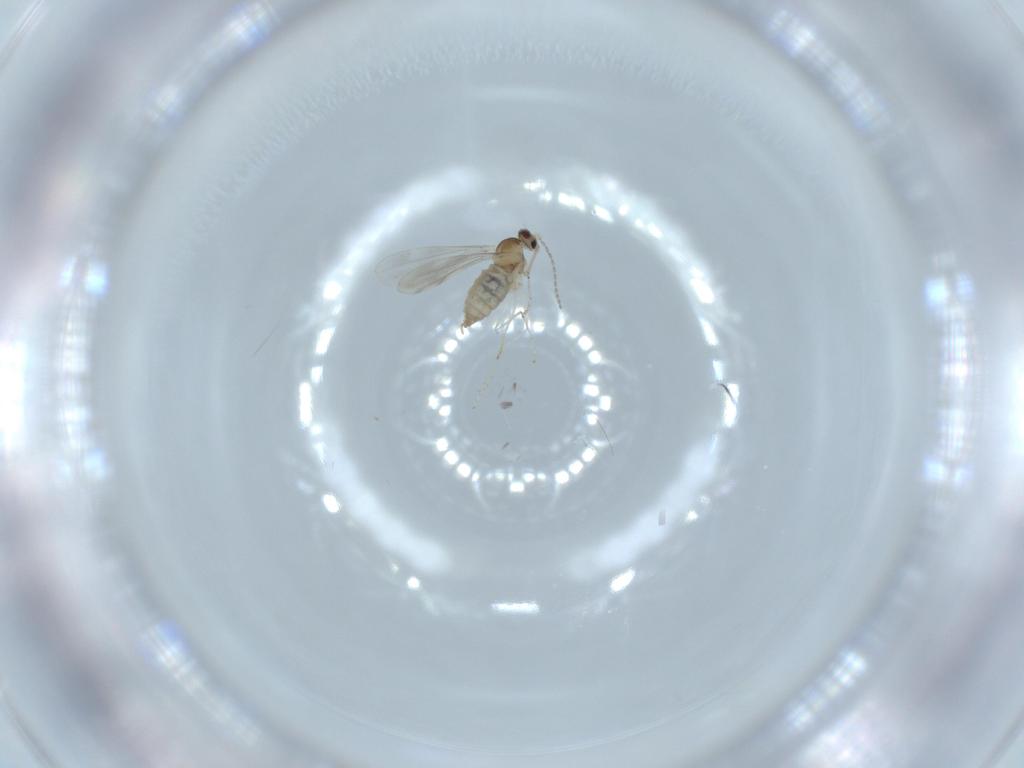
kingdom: Animalia
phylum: Arthropoda
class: Insecta
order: Diptera
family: Cecidomyiidae
